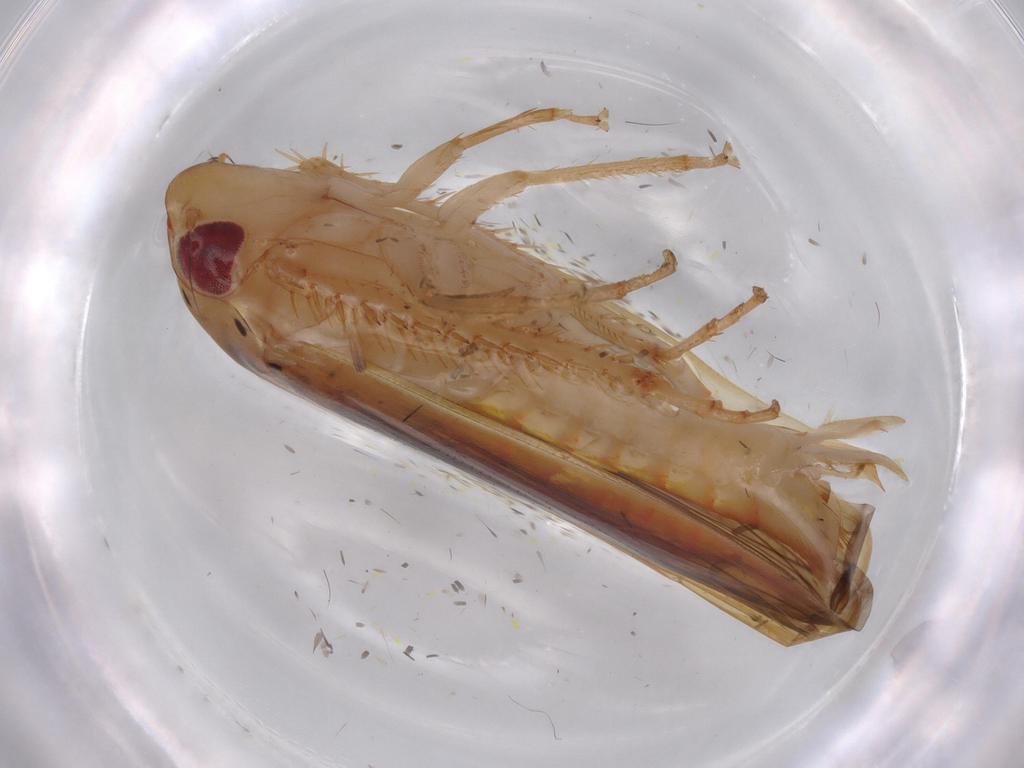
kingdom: Animalia
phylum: Arthropoda
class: Insecta
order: Hemiptera
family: Cicadellidae
